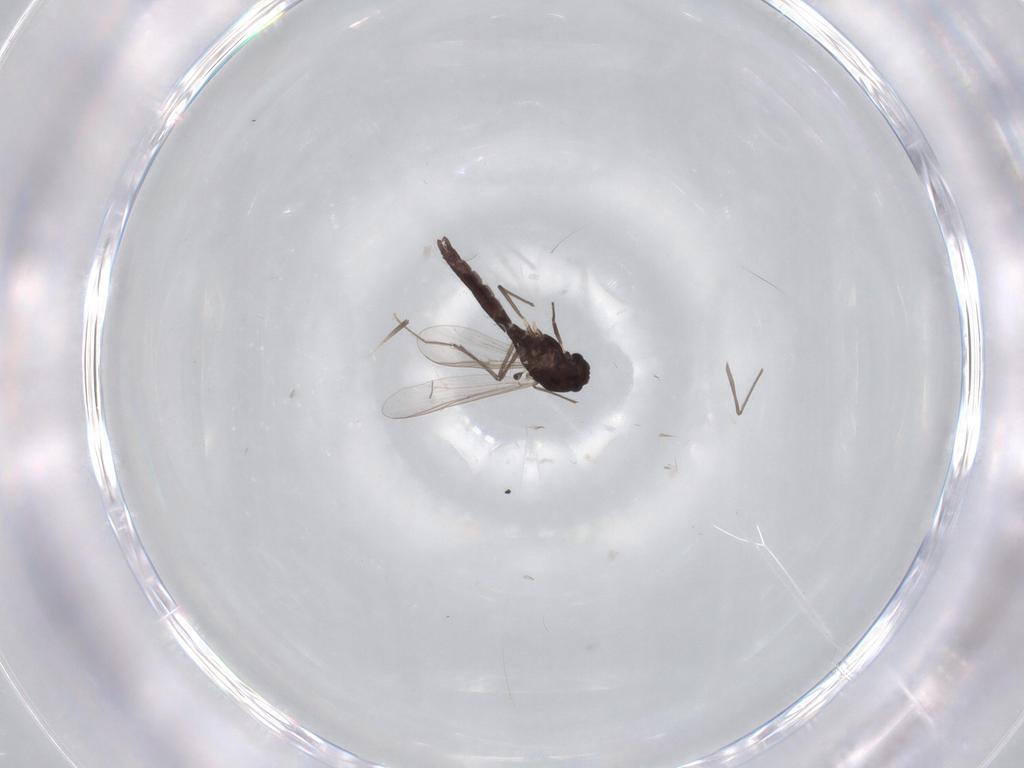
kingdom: Animalia
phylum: Arthropoda
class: Insecta
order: Diptera
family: Chironomidae
